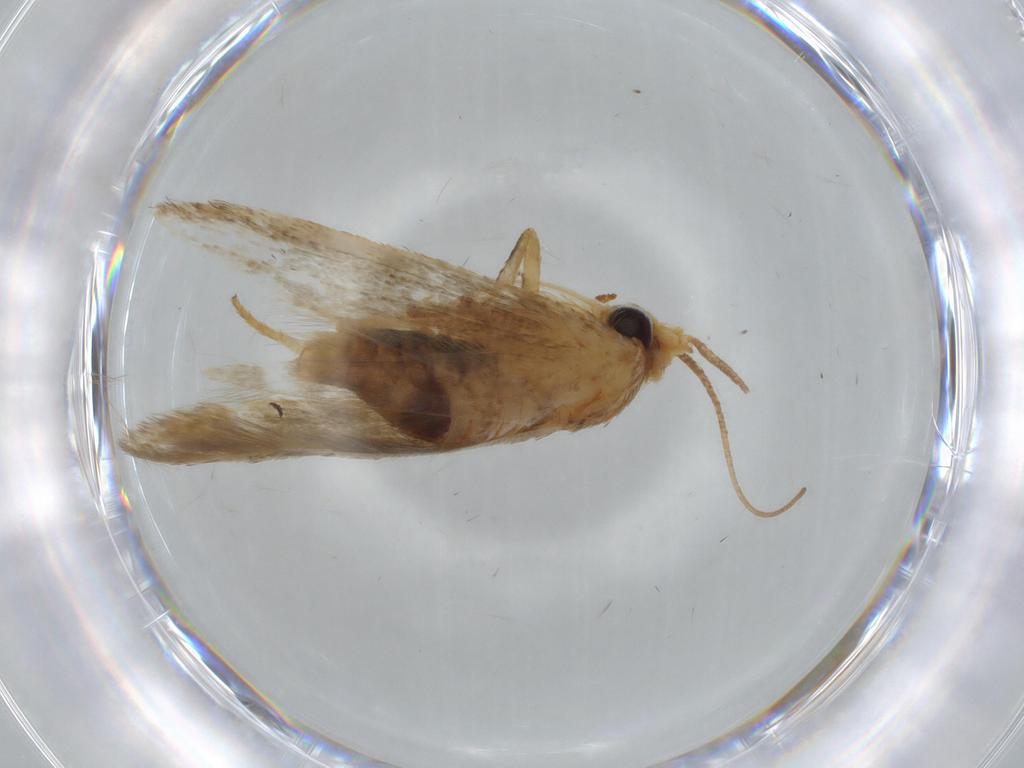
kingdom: Animalia
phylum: Arthropoda
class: Insecta
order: Lepidoptera
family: Coleophoridae
